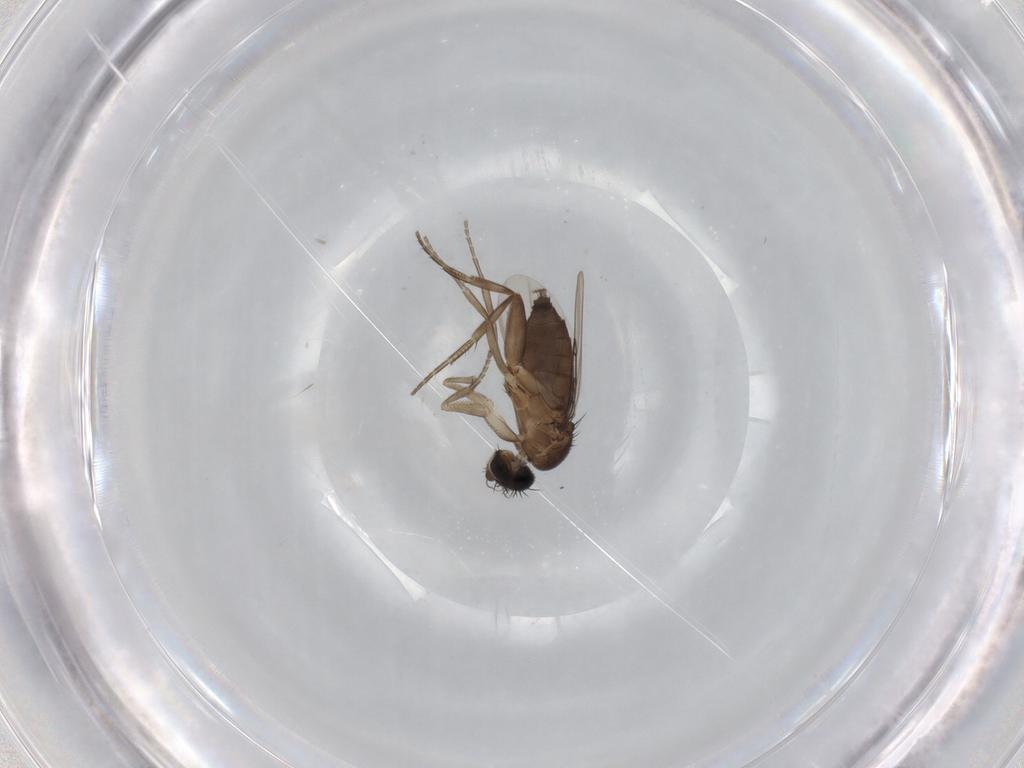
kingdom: Animalia
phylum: Arthropoda
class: Insecta
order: Diptera
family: Phoridae
